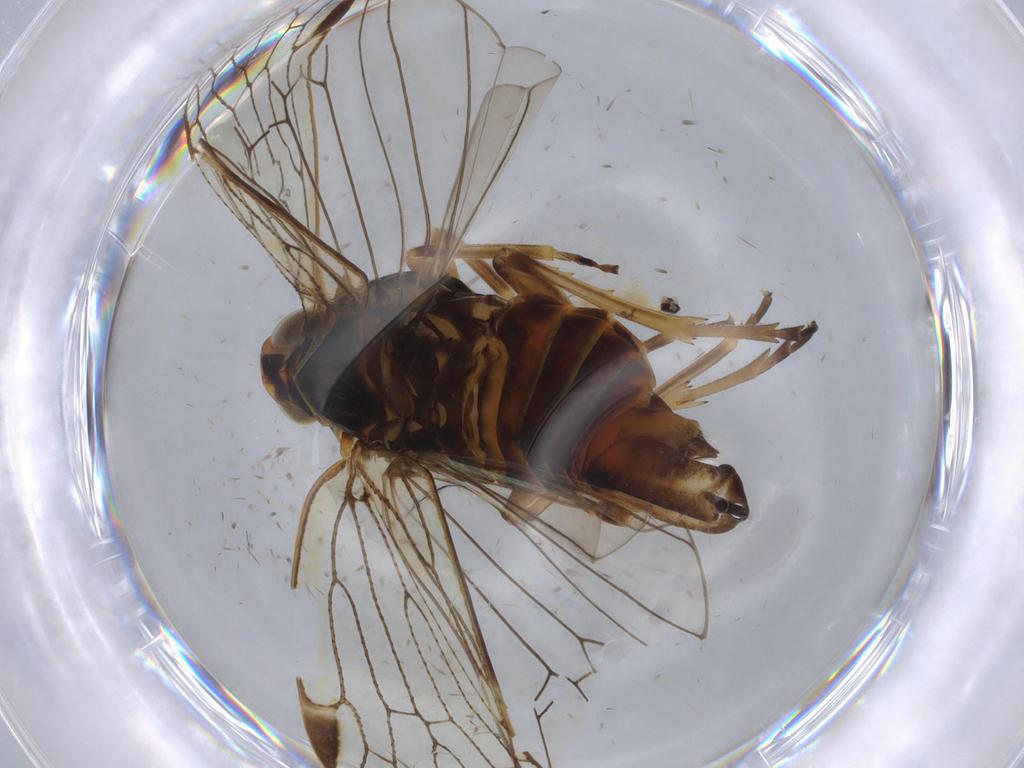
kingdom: Animalia
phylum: Arthropoda
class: Insecta
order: Hemiptera
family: Cixiidae
